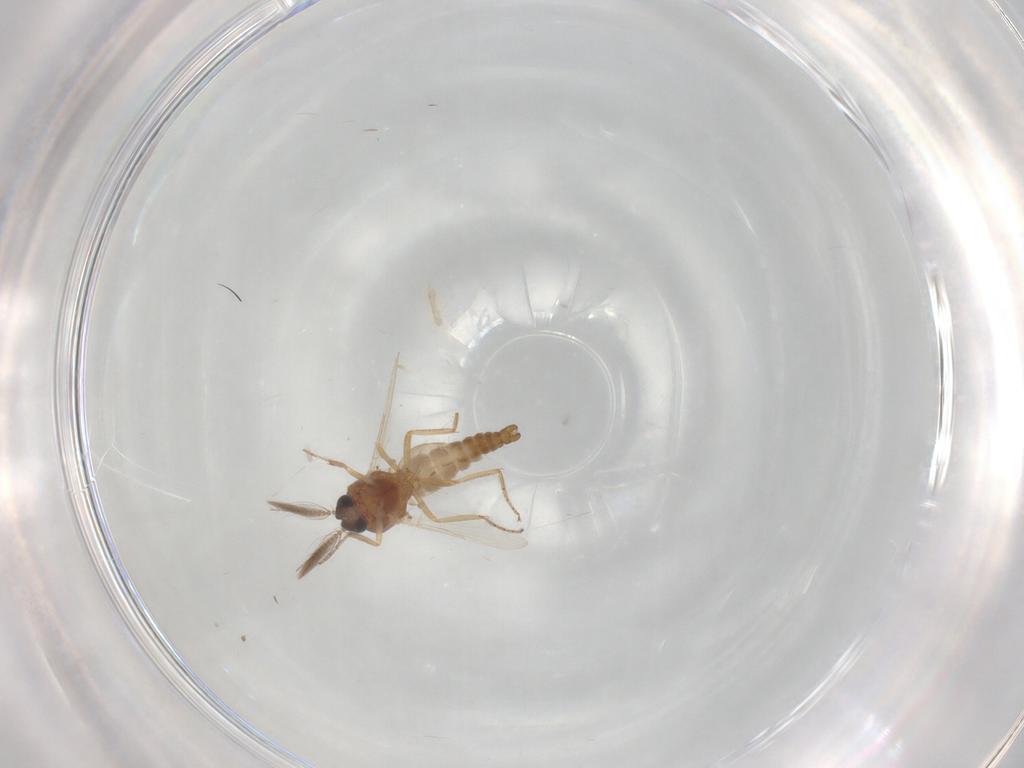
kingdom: Animalia
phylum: Arthropoda
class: Insecta
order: Diptera
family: Ceratopogonidae
